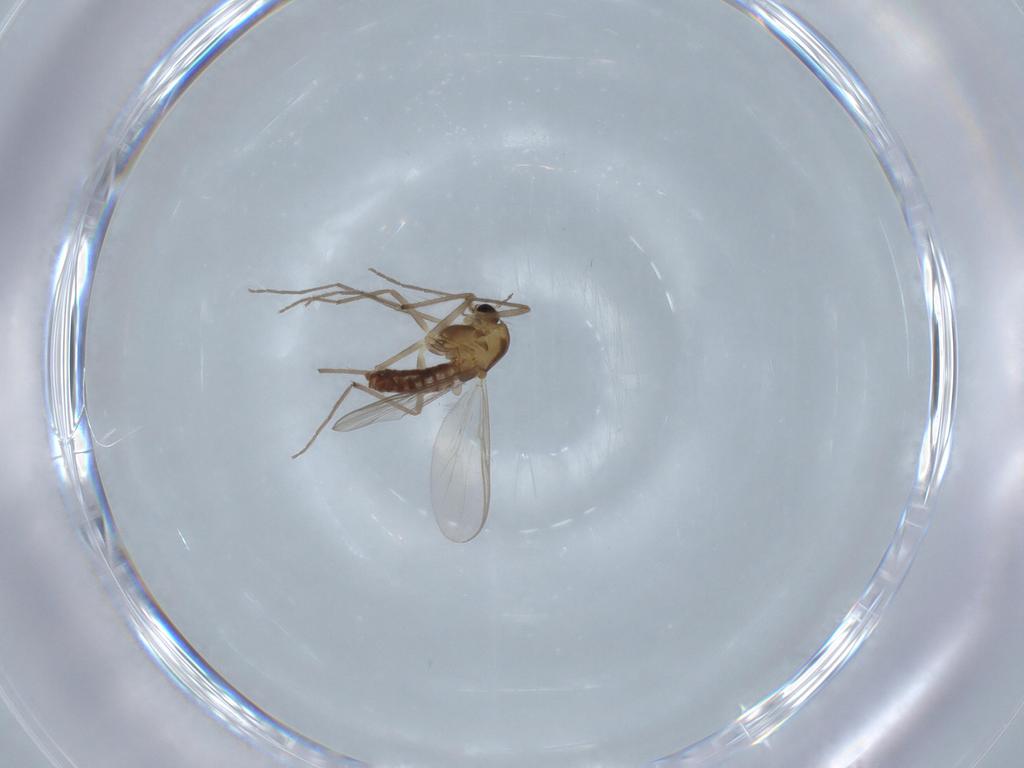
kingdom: Animalia
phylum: Arthropoda
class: Insecta
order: Diptera
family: Chironomidae
